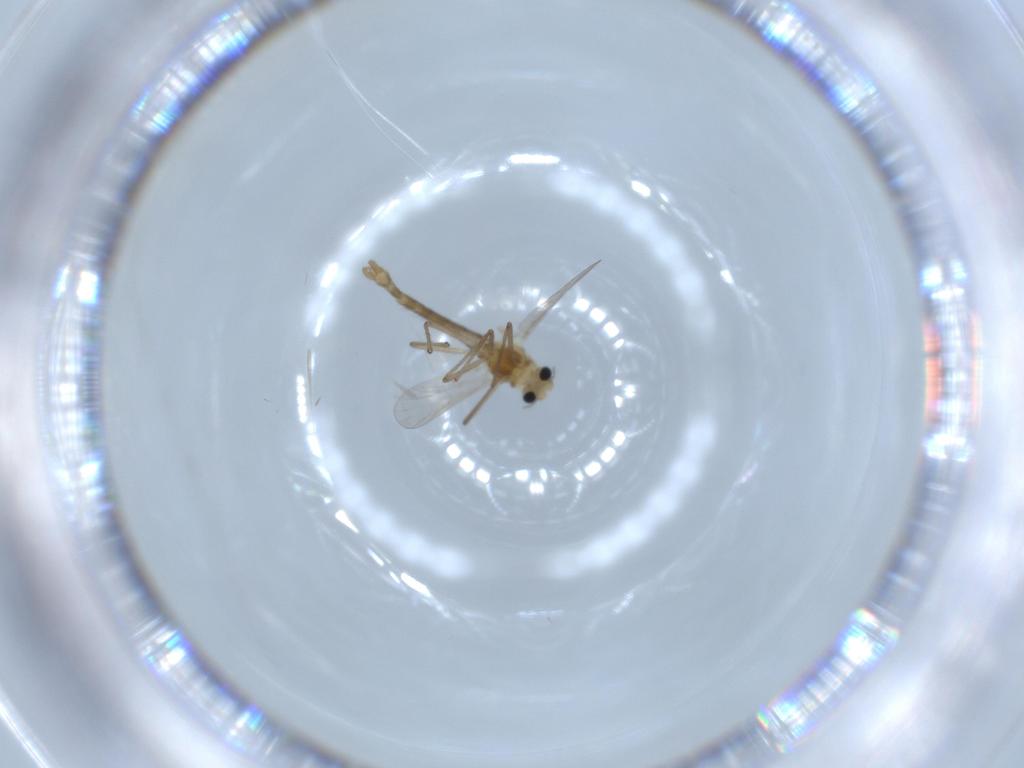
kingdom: Animalia
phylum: Arthropoda
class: Insecta
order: Diptera
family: Chironomidae
